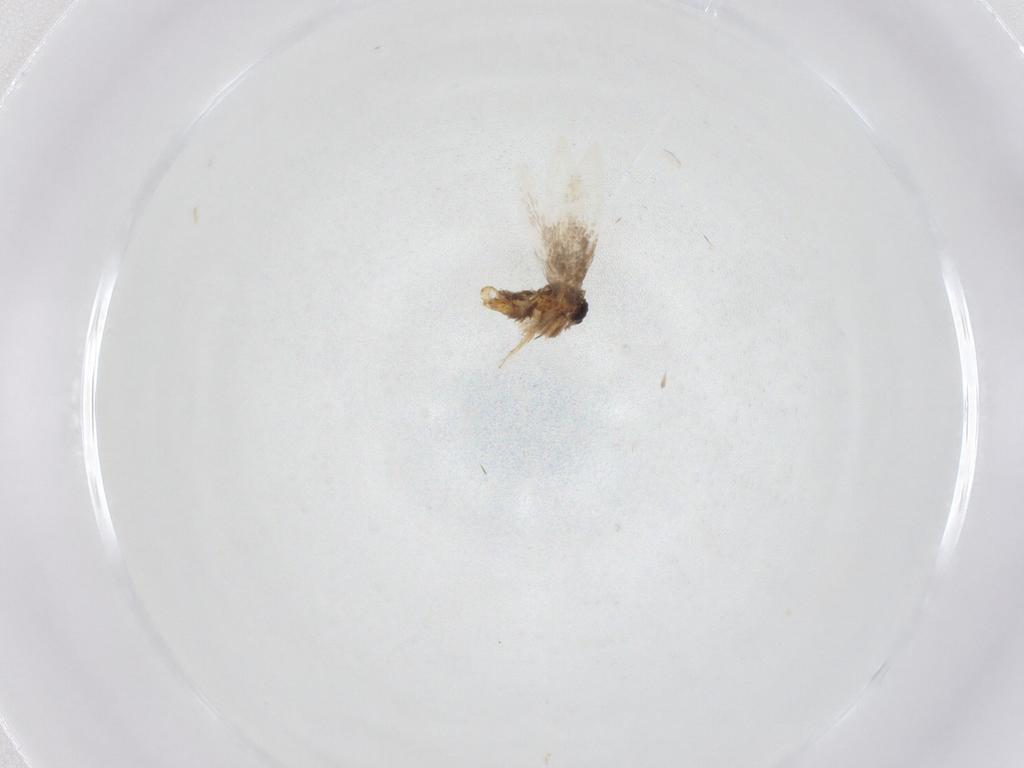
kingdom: Animalia
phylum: Arthropoda
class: Insecta
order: Lepidoptera
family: Nepticulidae
